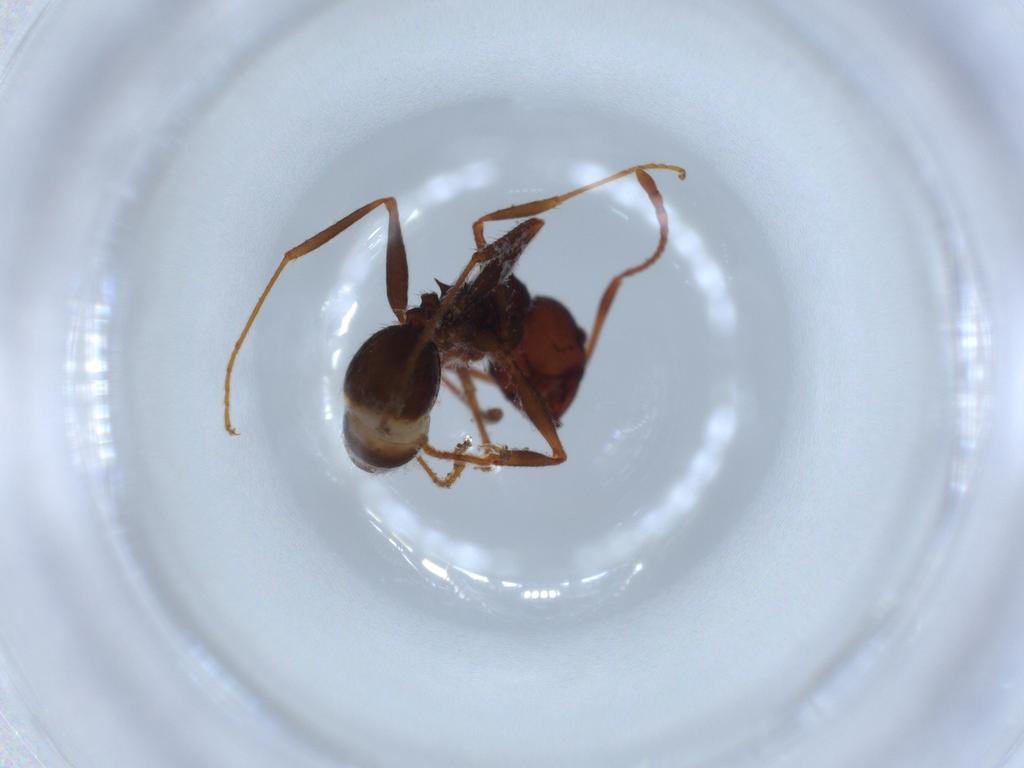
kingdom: Animalia
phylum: Arthropoda
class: Insecta
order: Hymenoptera
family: Formicidae
